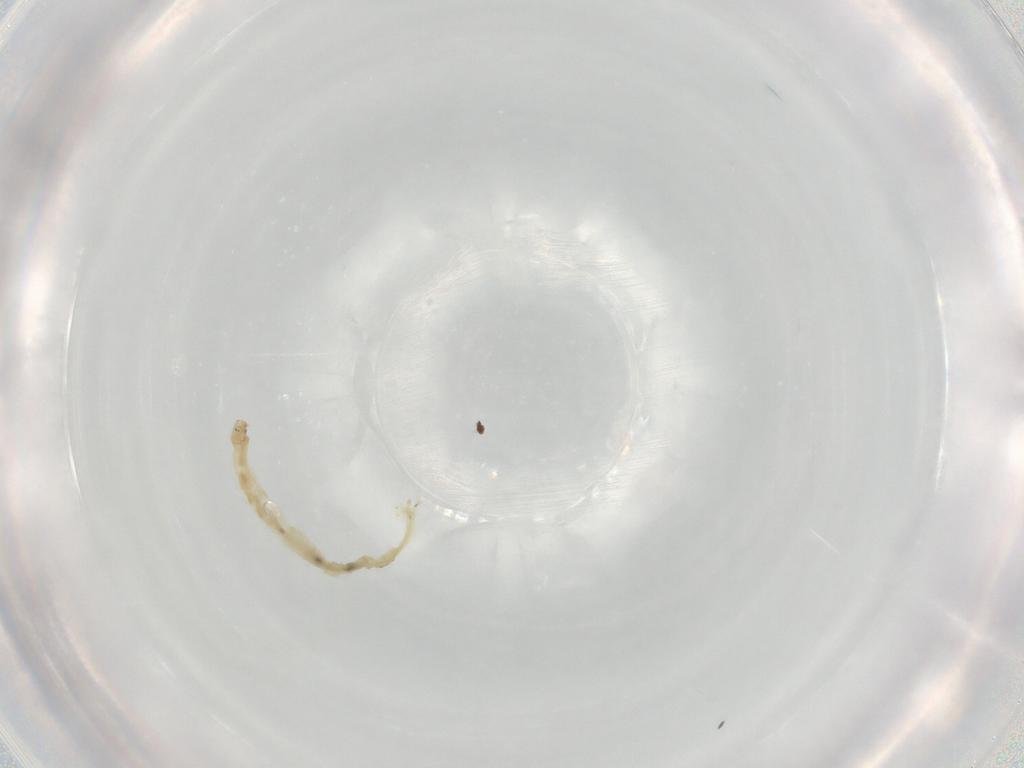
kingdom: Animalia
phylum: Arthropoda
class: Insecta
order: Diptera
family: Chironomidae
